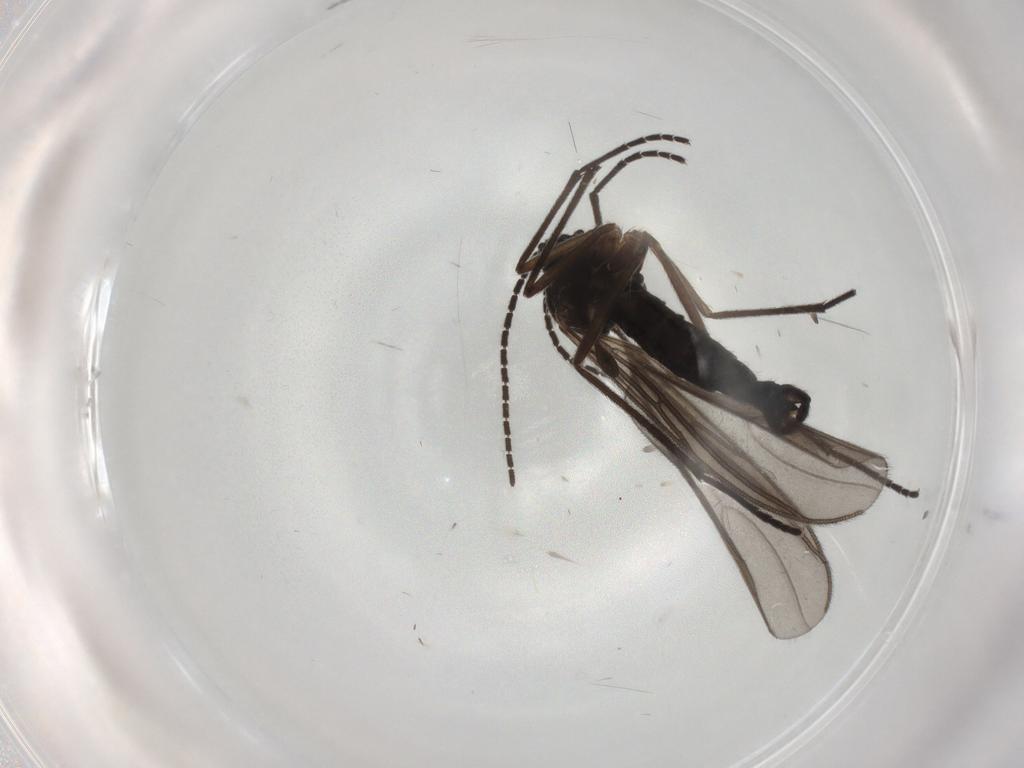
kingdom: Animalia
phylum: Arthropoda
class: Insecta
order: Diptera
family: Sciaridae
